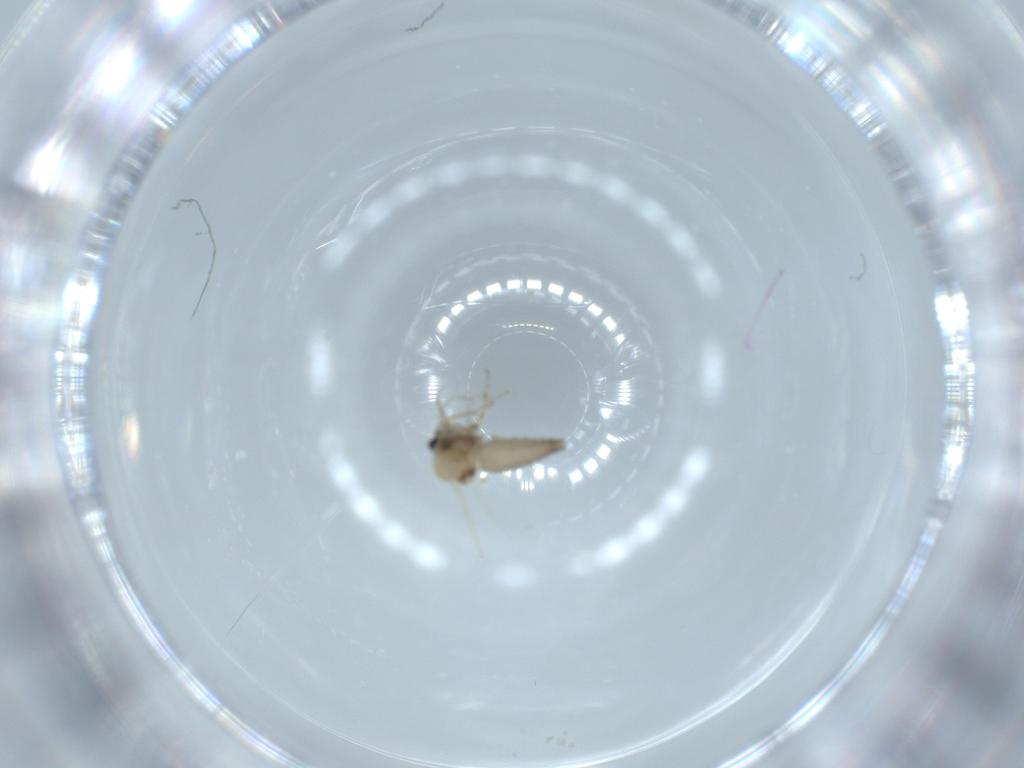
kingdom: Animalia
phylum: Arthropoda
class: Insecta
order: Diptera
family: Ceratopogonidae
